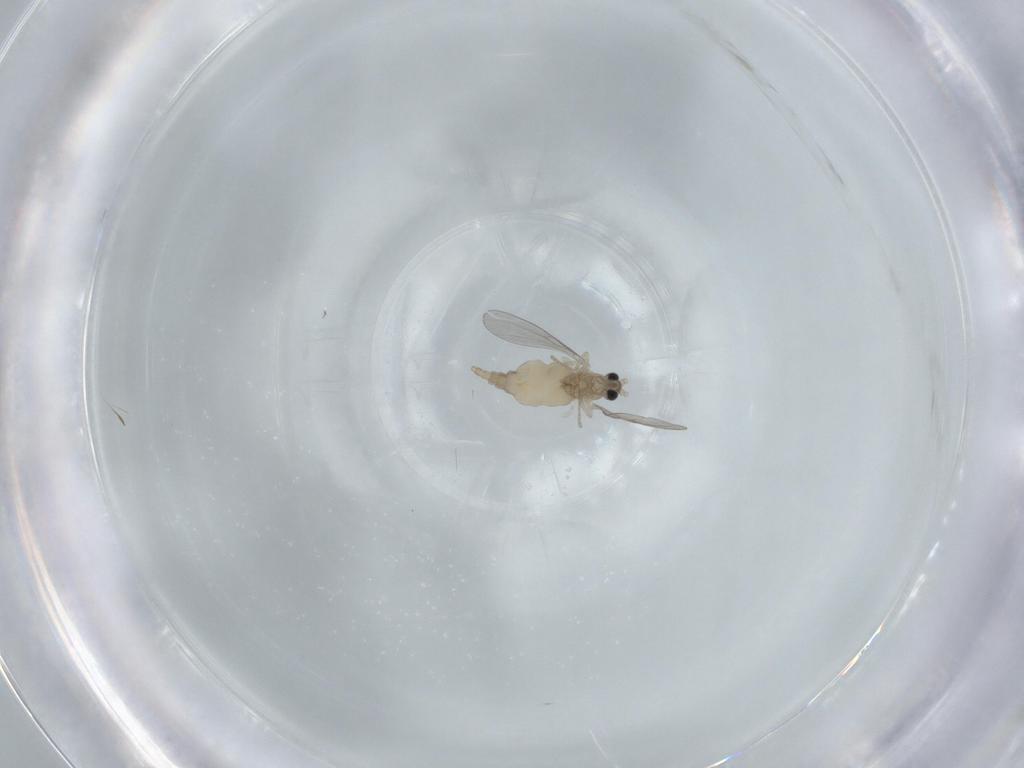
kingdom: Animalia
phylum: Arthropoda
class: Insecta
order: Diptera
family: Cecidomyiidae
